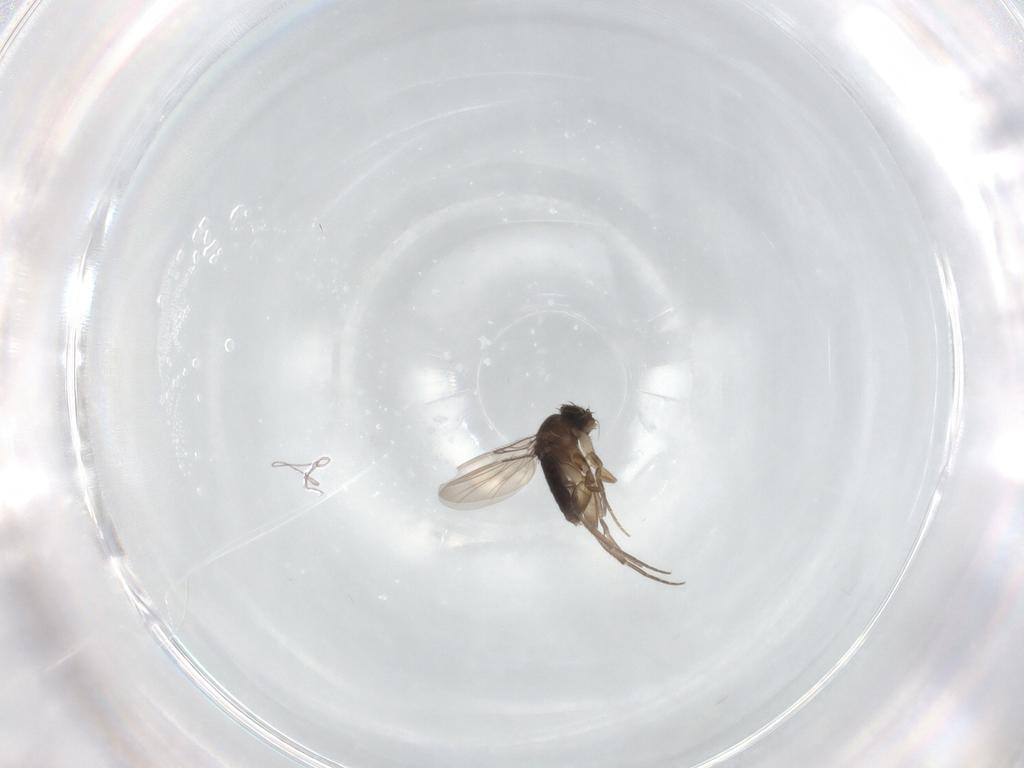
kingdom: Animalia
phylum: Arthropoda
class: Insecta
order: Diptera
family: Phoridae
